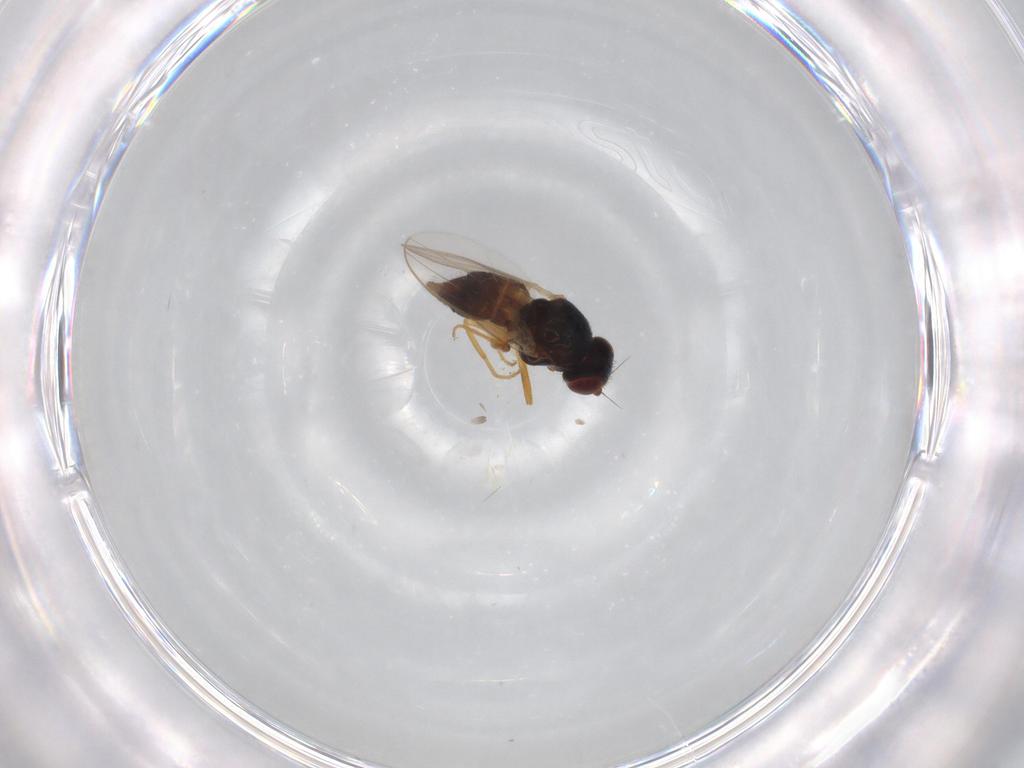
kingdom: Animalia
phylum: Arthropoda
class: Insecta
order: Diptera
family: Chloropidae
